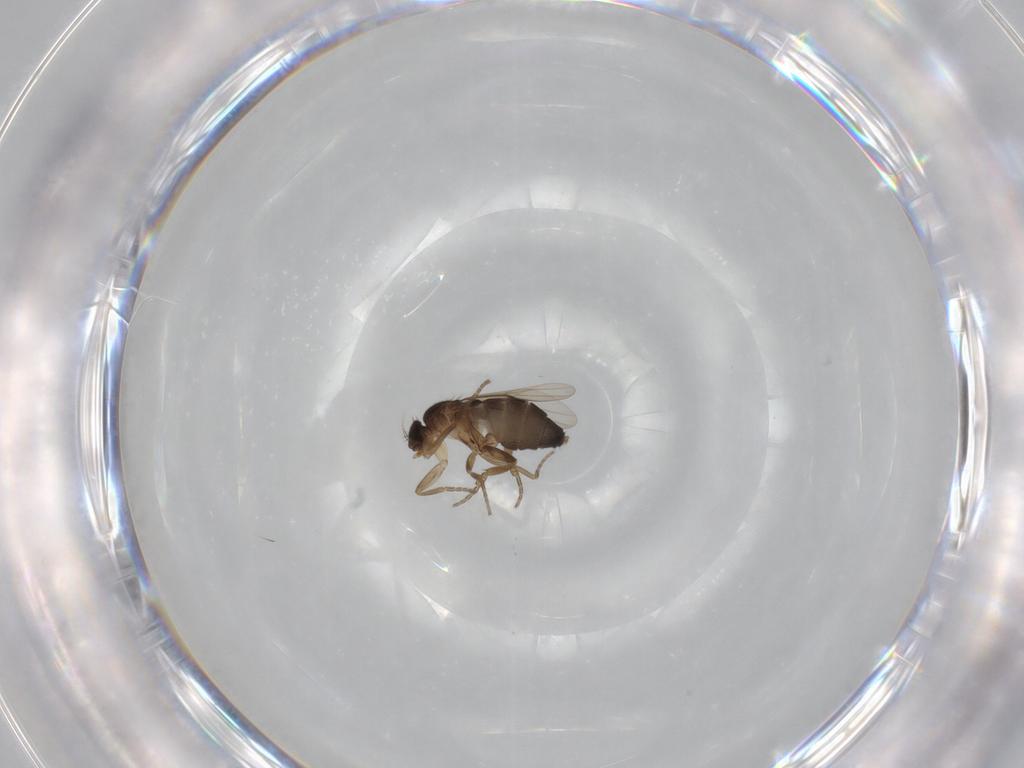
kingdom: Animalia
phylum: Arthropoda
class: Insecta
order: Diptera
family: Phoridae
